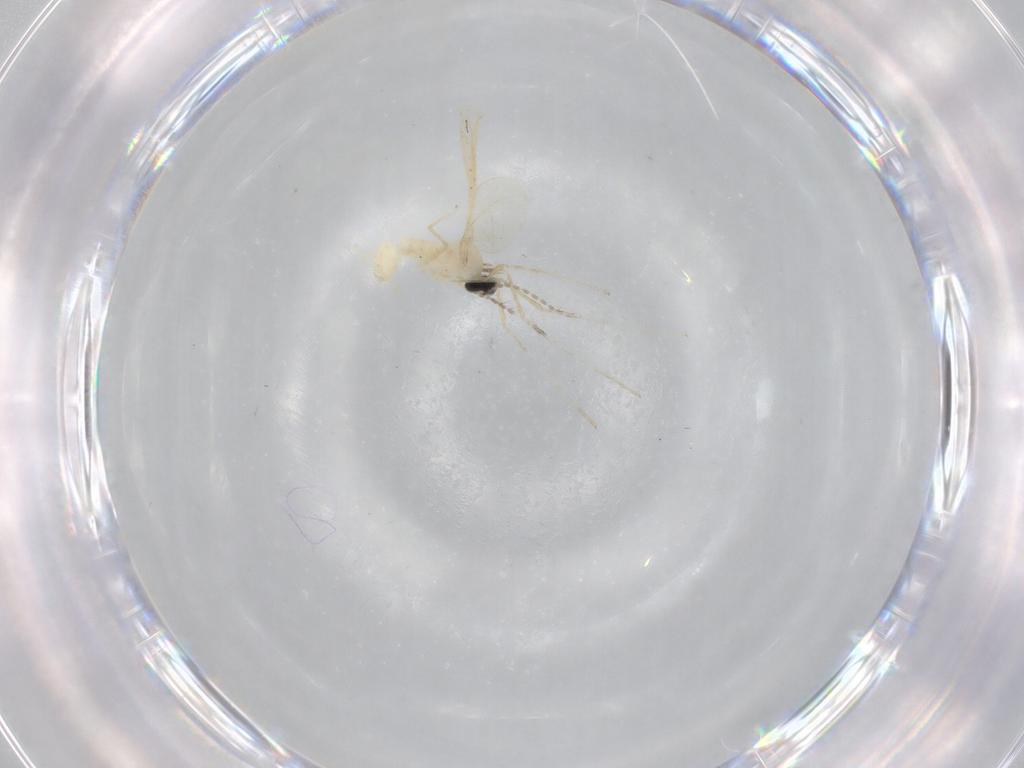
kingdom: Animalia
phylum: Arthropoda
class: Insecta
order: Diptera
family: Cecidomyiidae
